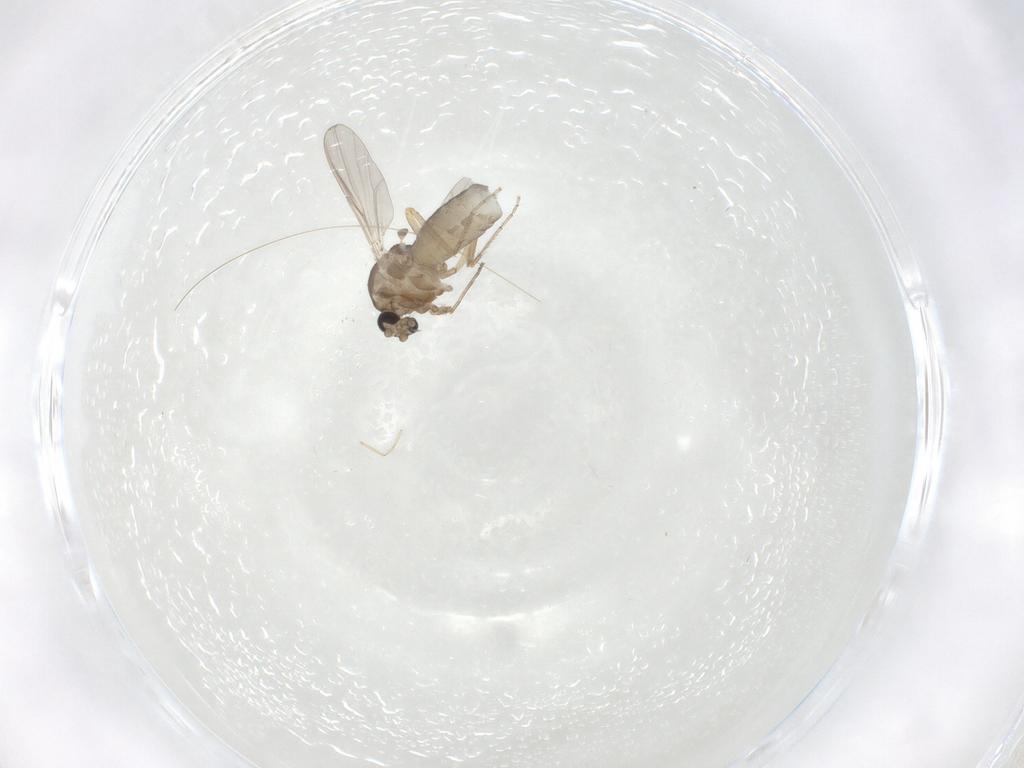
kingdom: Animalia
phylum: Arthropoda
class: Insecta
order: Diptera
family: Ceratopogonidae
